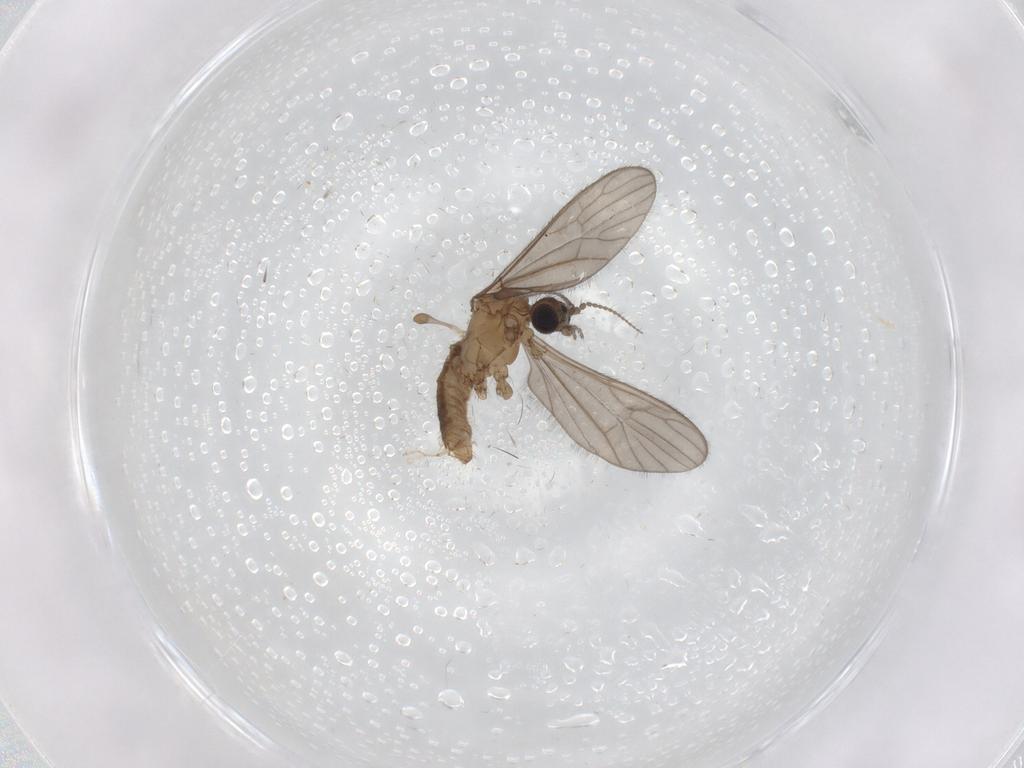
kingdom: Animalia
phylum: Arthropoda
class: Insecta
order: Diptera
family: Limoniidae
